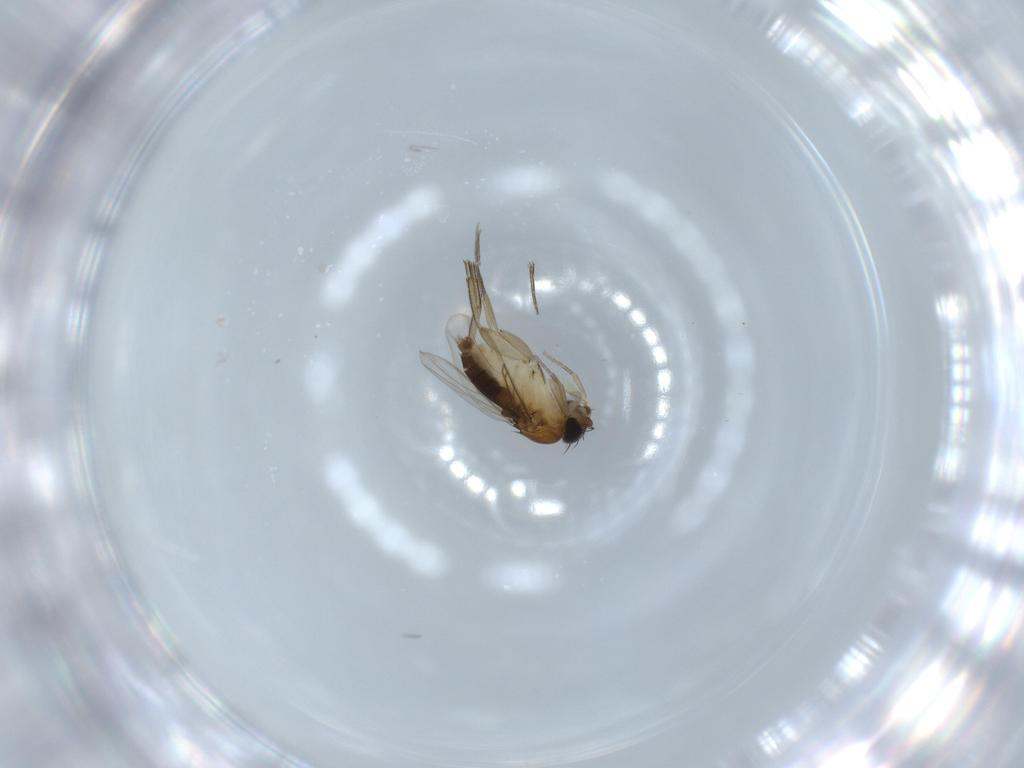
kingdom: Animalia
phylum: Arthropoda
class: Insecta
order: Diptera
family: Phoridae
